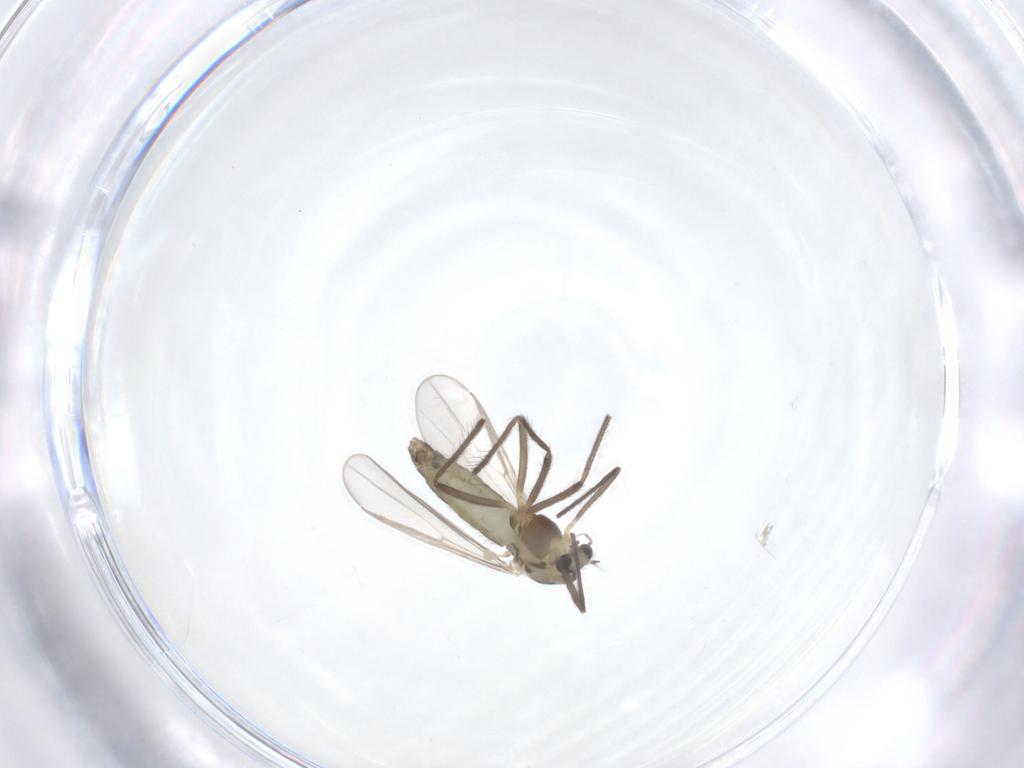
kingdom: Animalia
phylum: Arthropoda
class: Insecta
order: Diptera
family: Chironomidae
